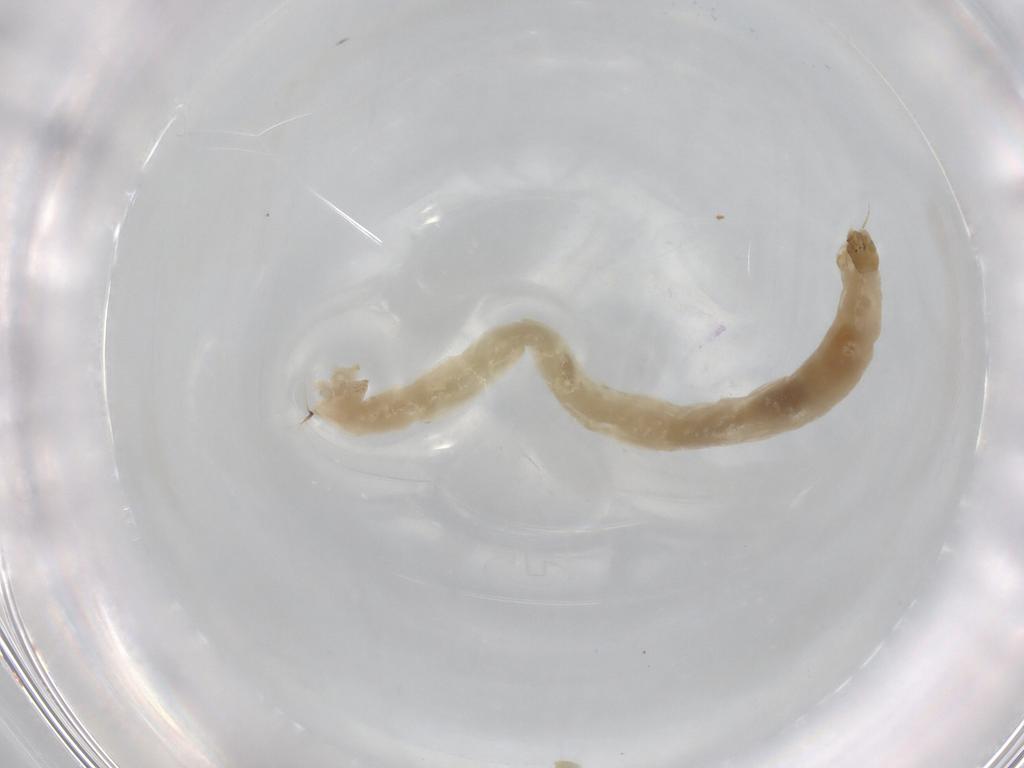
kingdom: Animalia
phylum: Arthropoda
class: Insecta
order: Diptera
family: Chironomidae
